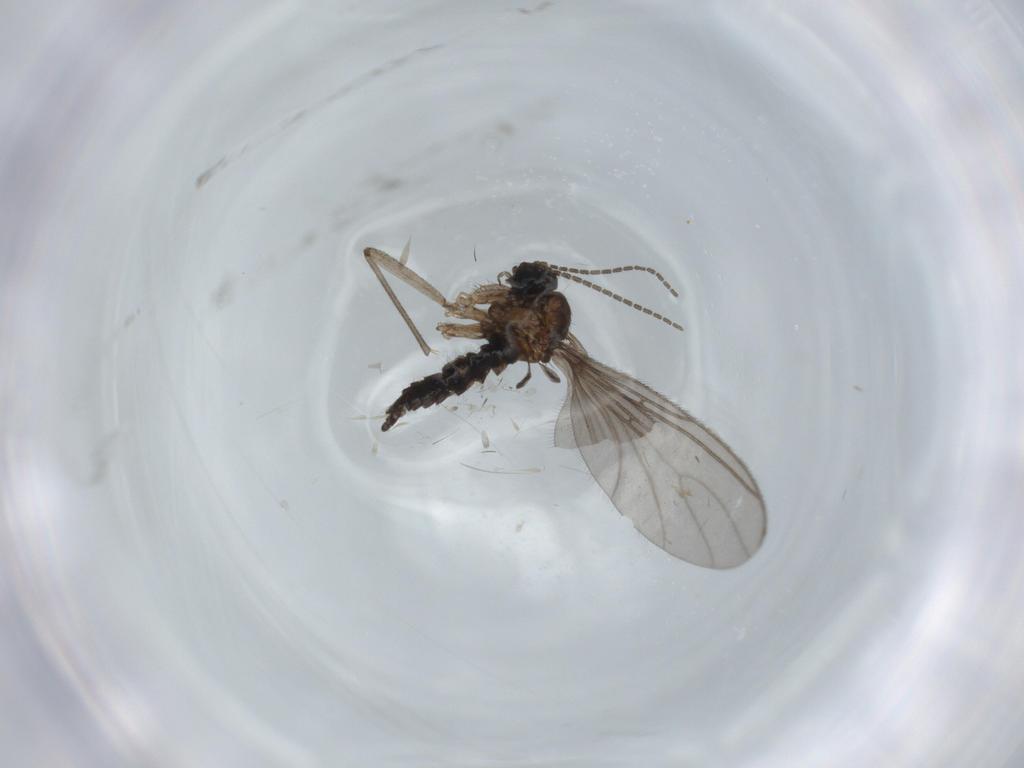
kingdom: Animalia
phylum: Arthropoda
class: Insecta
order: Diptera
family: Sciaridae
